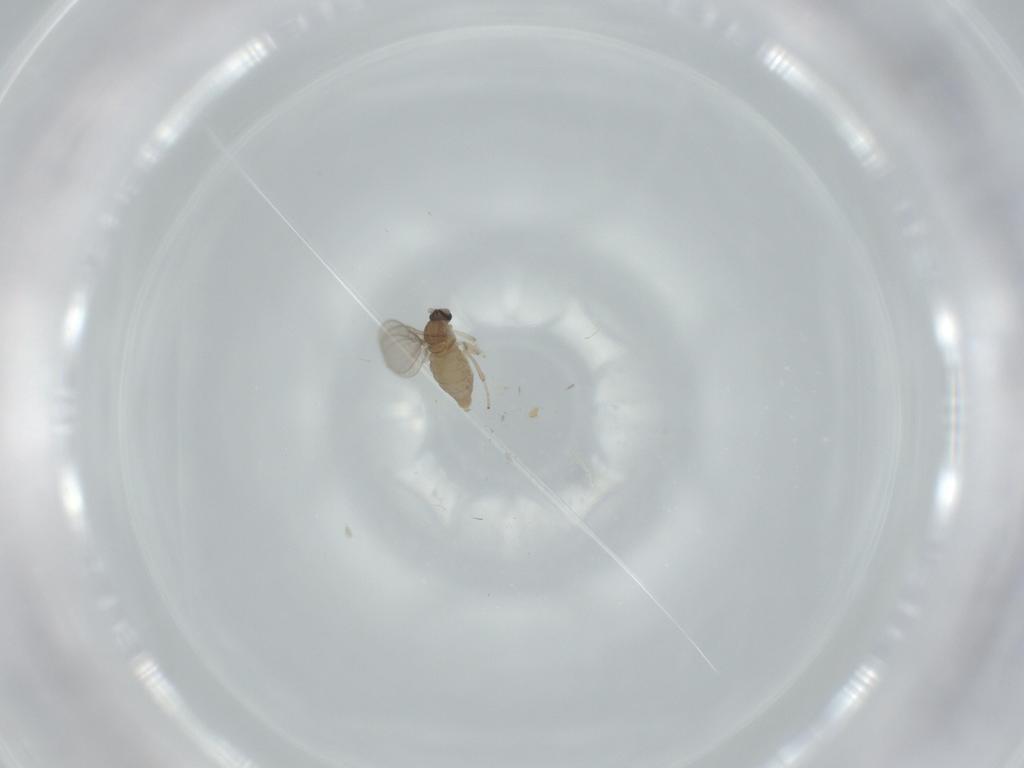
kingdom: Animalia
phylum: Arthropoda
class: Insecta
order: Diptera
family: Cecidomyiidae
